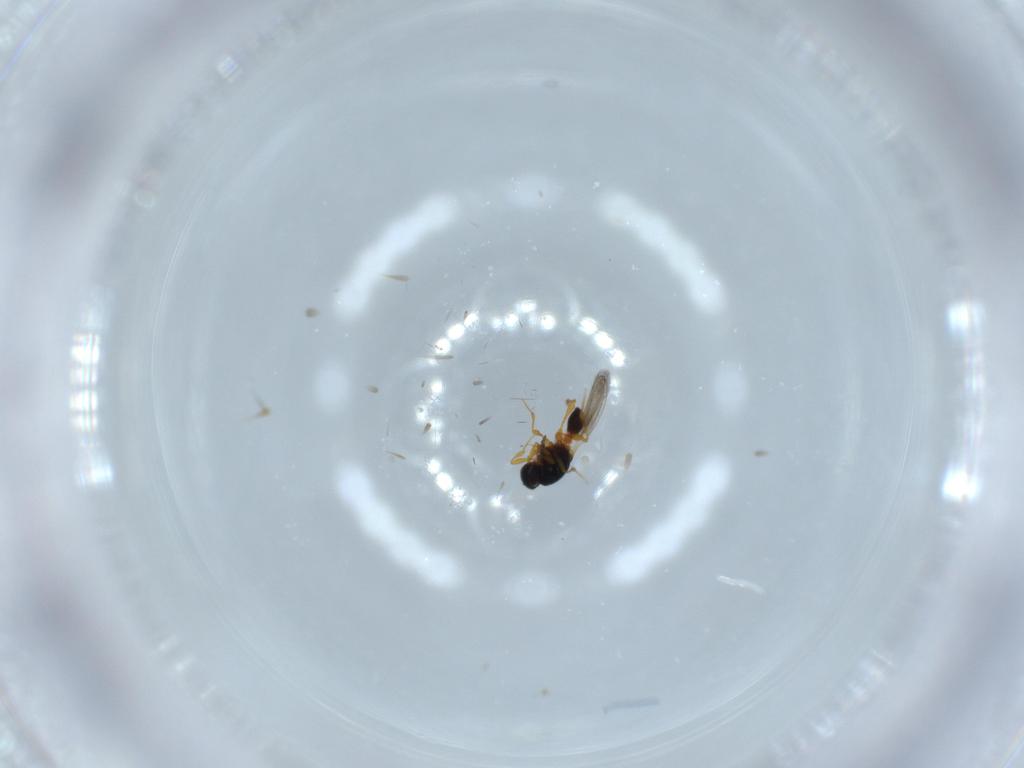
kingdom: Animalia
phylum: Arthropoda
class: Insecta
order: Hymenoptera
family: Platygastridae
